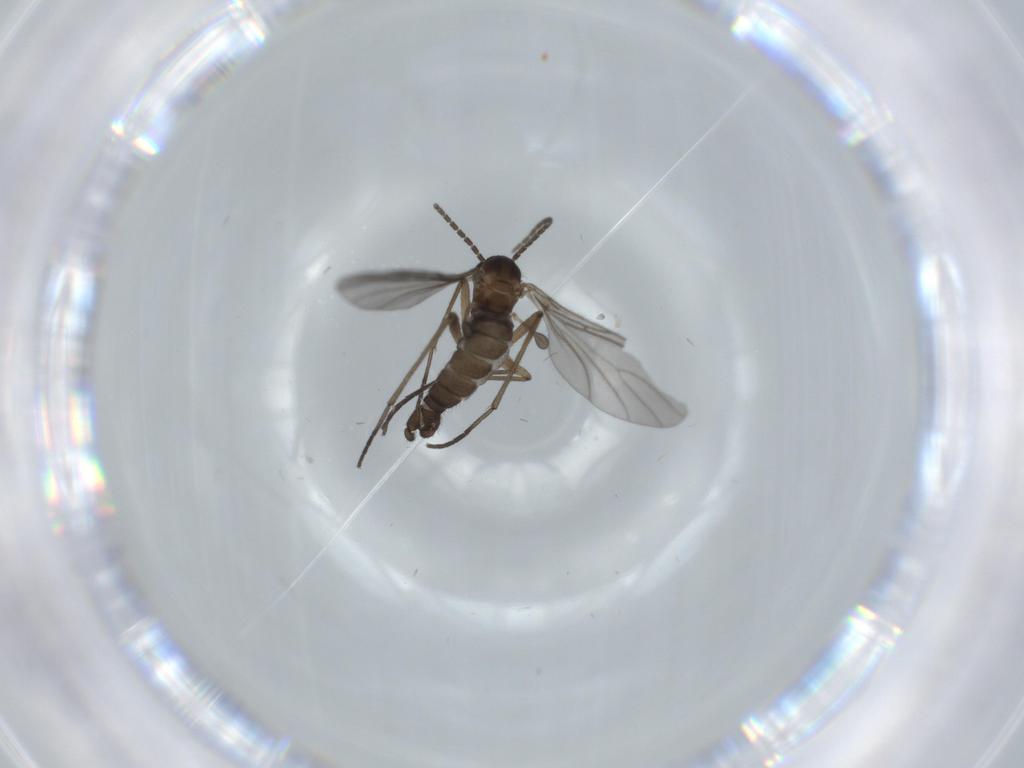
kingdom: Animalia
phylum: Arthropoda
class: Insecta
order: Diptera
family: Sciaridae
